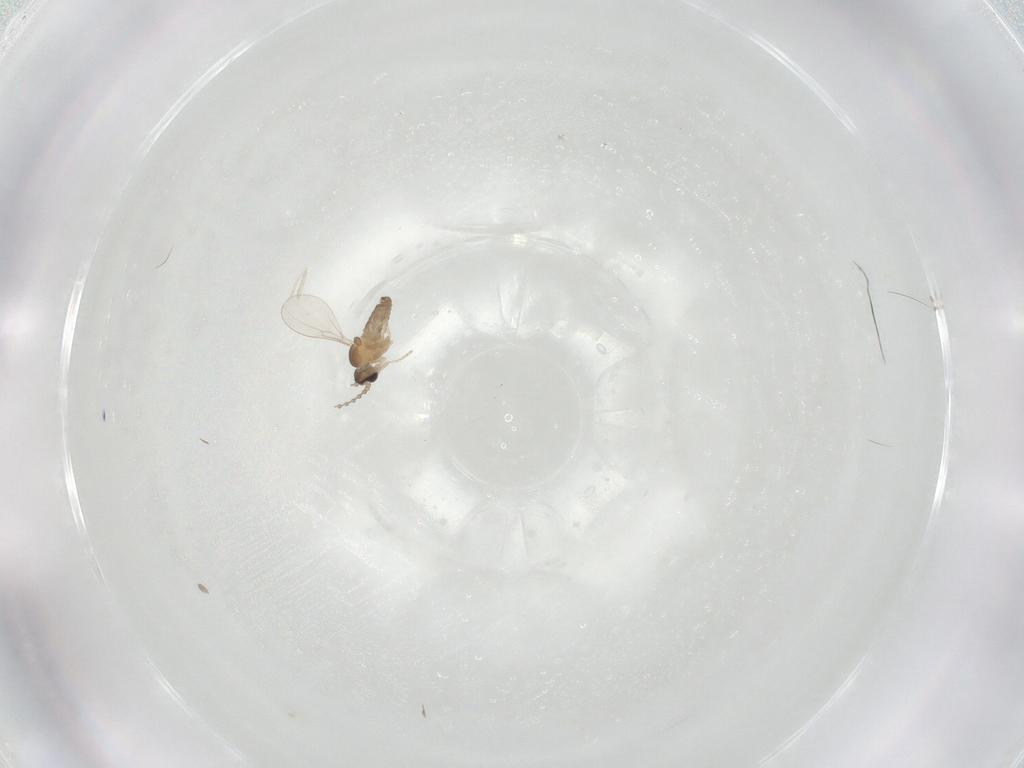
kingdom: Animalia
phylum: Arthropoda
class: Insecta
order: Diptera
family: Cecidomyiidae
